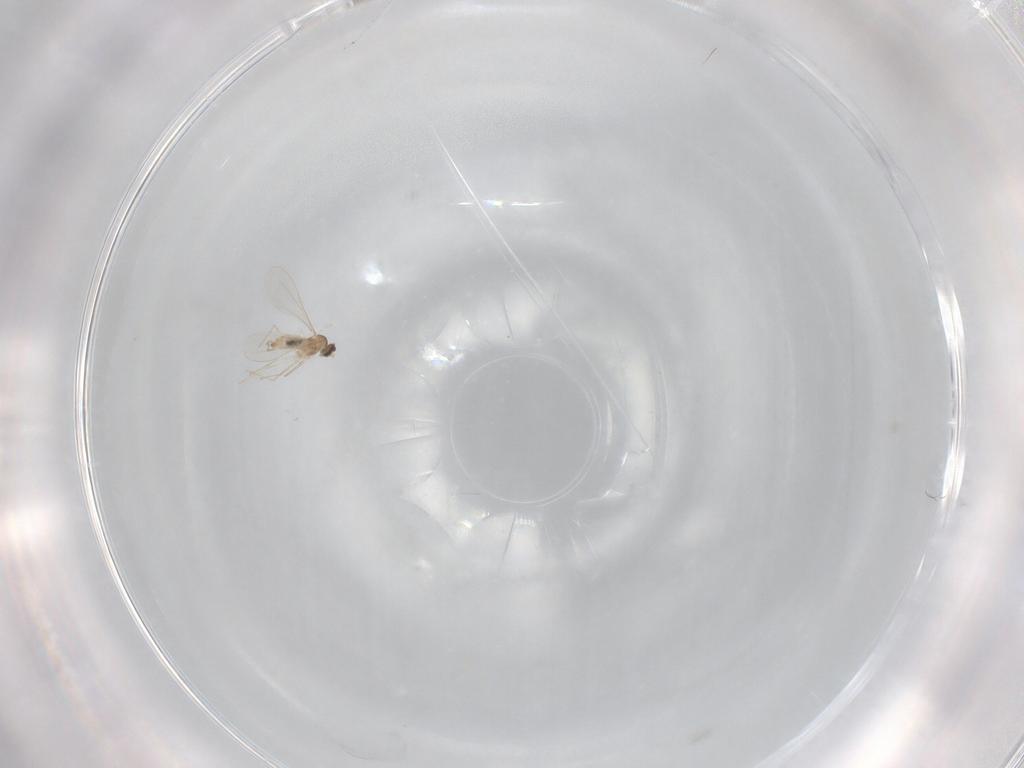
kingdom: Animalia
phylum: Arthropoda
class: Insecta
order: Diptera
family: Cecidomyiidae
